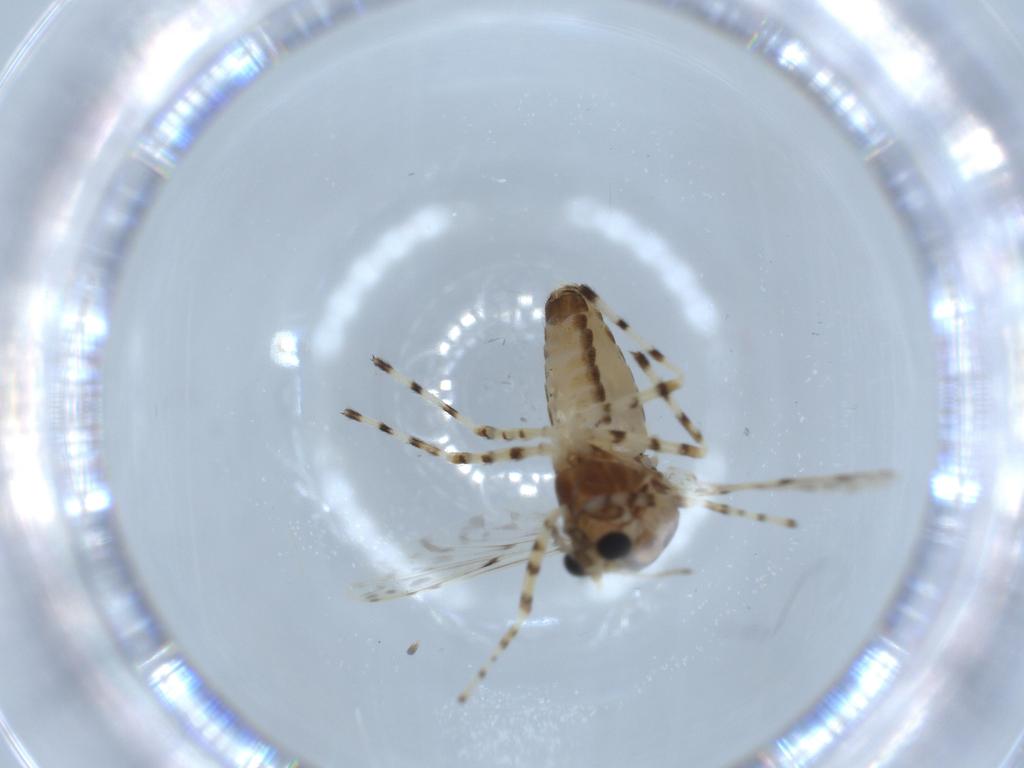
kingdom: Animalia
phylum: Arthropoda
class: Insecta
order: Diptera
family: Chironomidae
